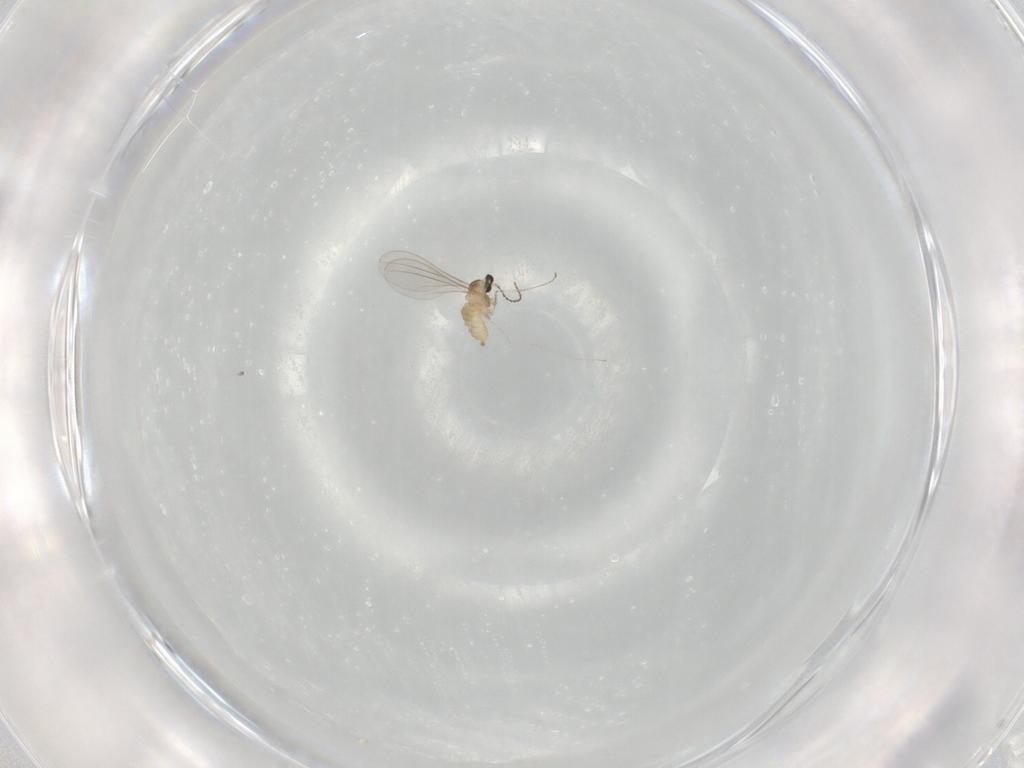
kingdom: Animalia
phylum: Arthropoda
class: Insecta
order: Diptera
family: Cecidomyiidae
